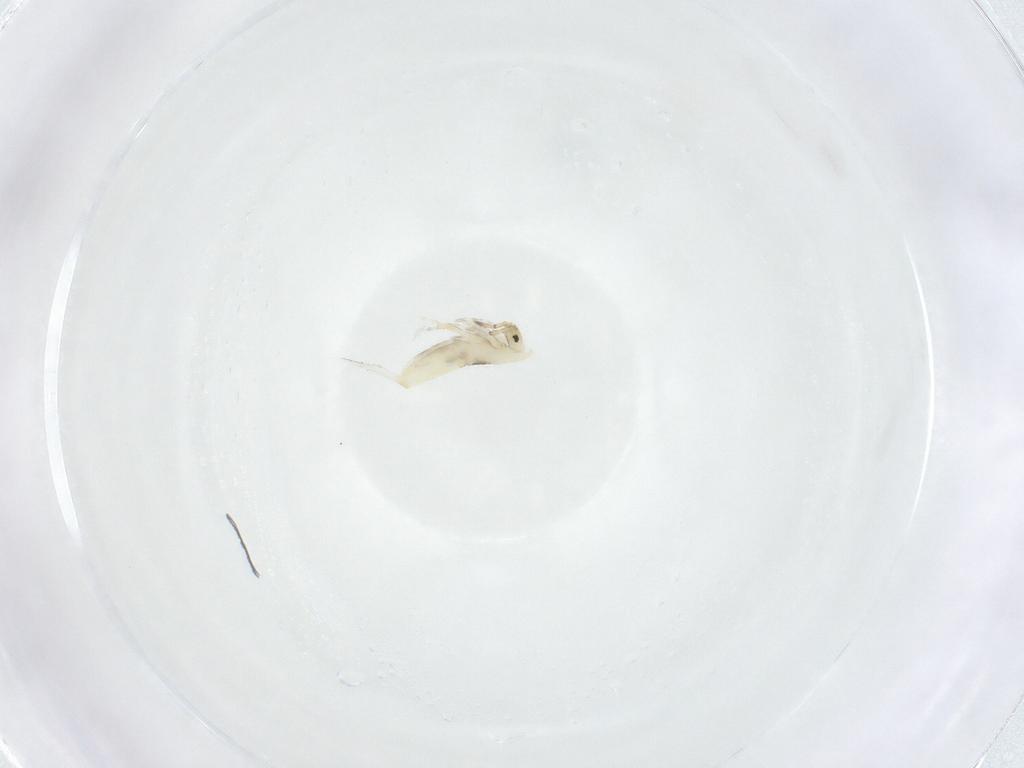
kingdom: Animalia
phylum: Arthropoda
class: Collembola
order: Entomobryomorpha
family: Entomobryidae
